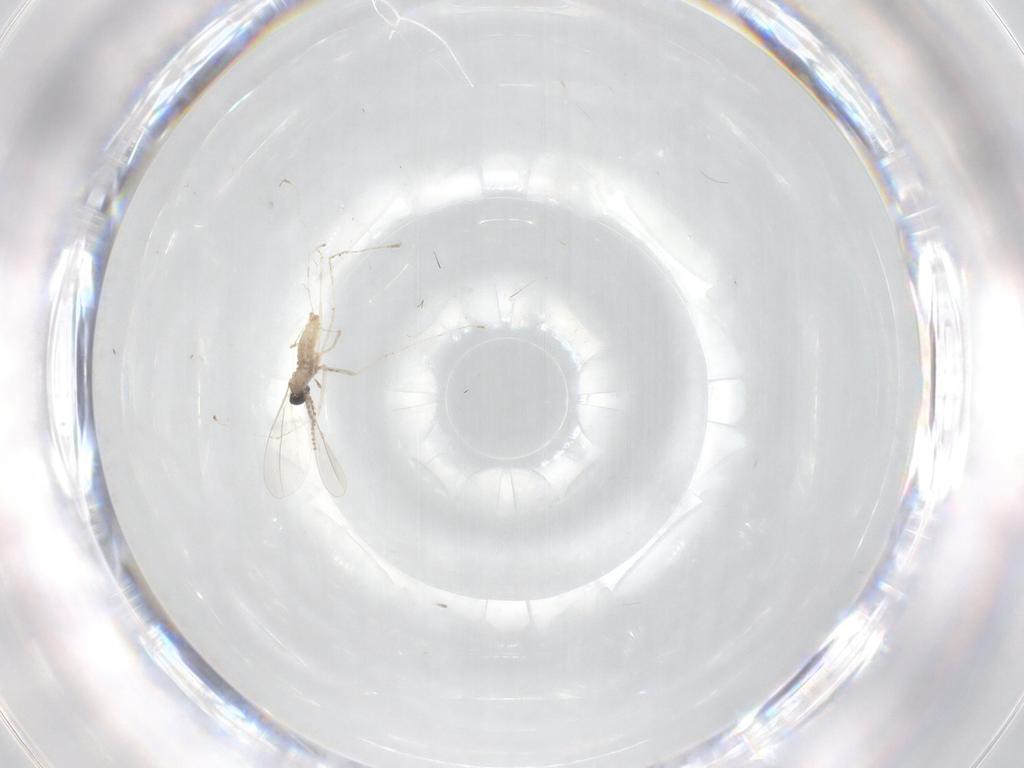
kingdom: Animalia
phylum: Arthropoda
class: Insecta
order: Diptera
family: Cecidomyiidae
